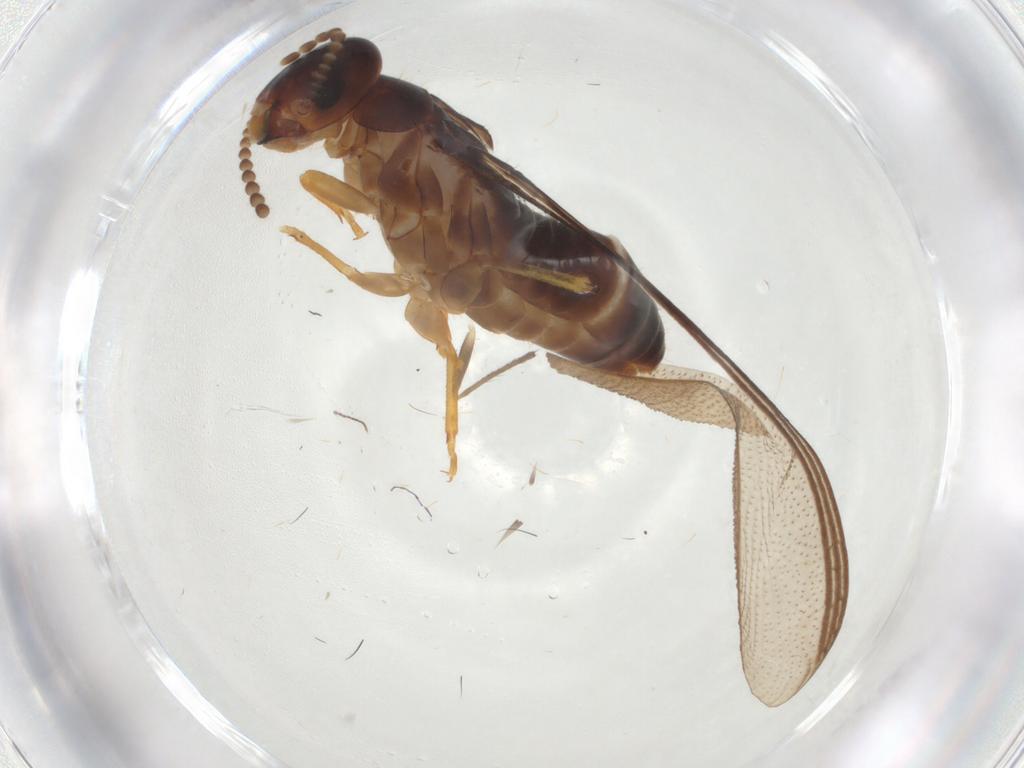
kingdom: Animalia
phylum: Arthropoda
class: Insecta
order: Blattodea
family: Kalotermitidae
